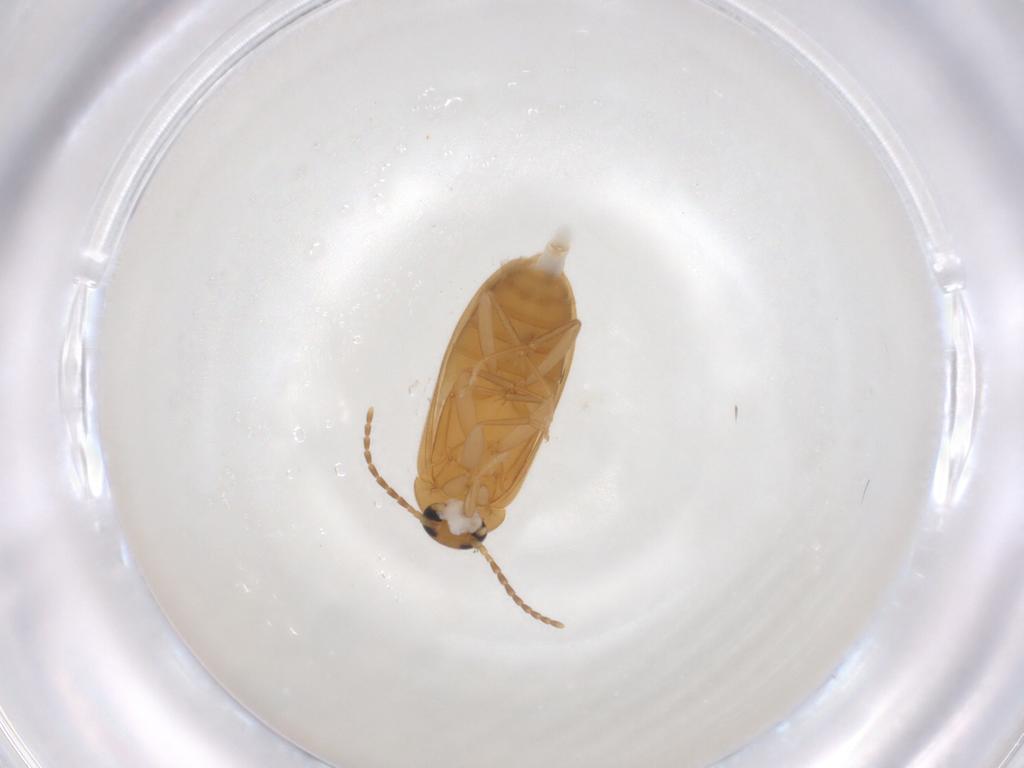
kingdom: Animalia
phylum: Arthropoda
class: Insecta
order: Coleoptera
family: Scraptiidae
